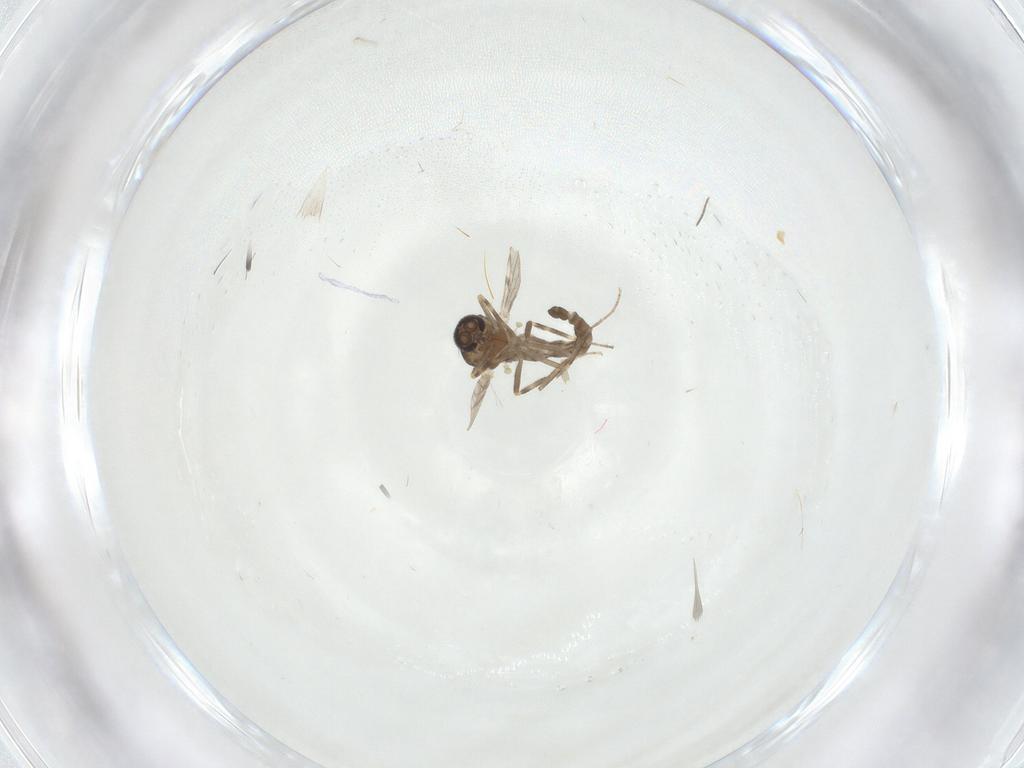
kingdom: Animalia
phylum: Arthropoda
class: Insecta
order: Diptera
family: Ceratopogonidae
